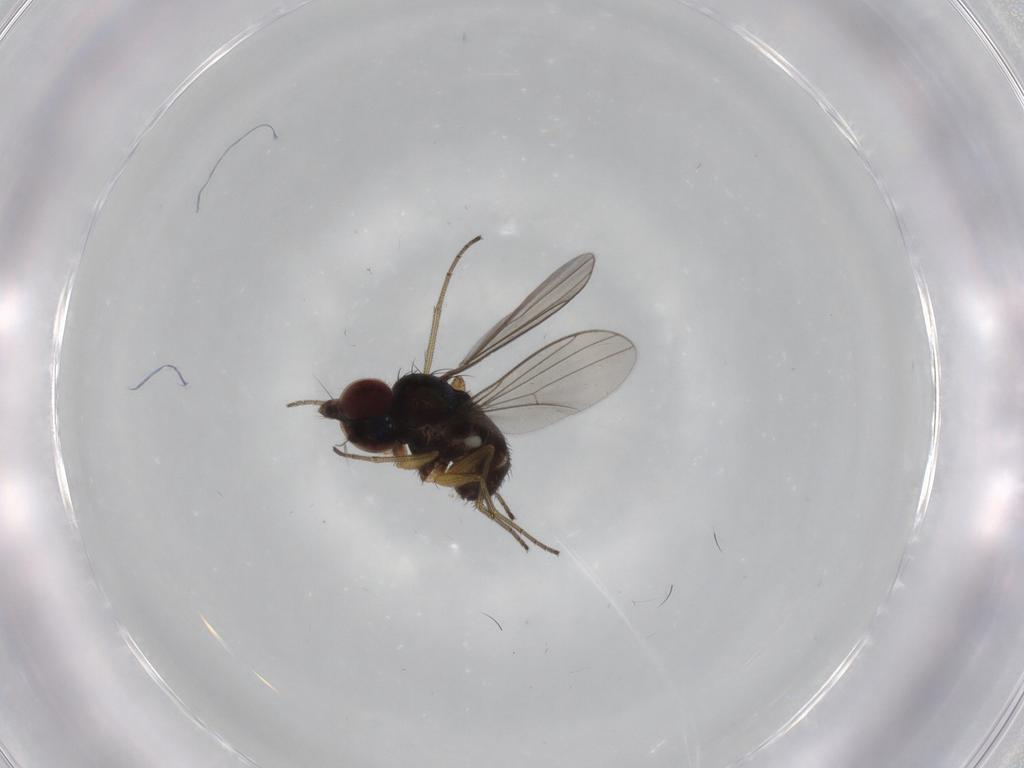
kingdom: Animalia
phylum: Arthropoda
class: Insecta
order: Diptera
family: Dolichopodidae
